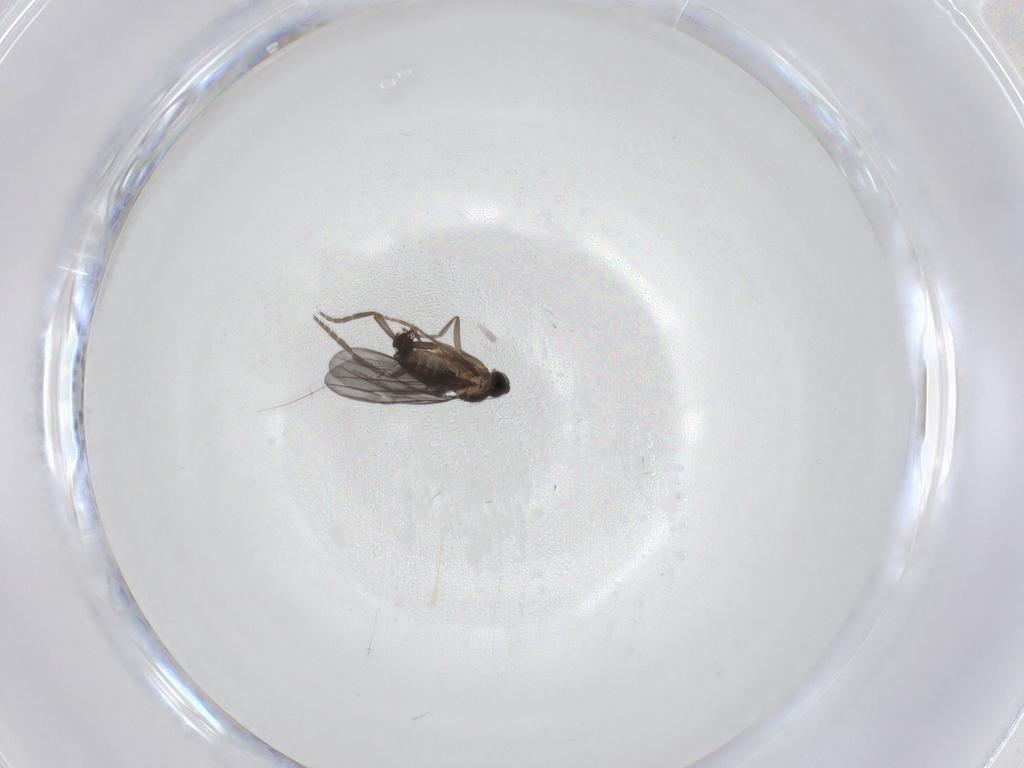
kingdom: Animalia
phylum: Arthropoda
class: Insecta
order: Diptera
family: Phoridae
